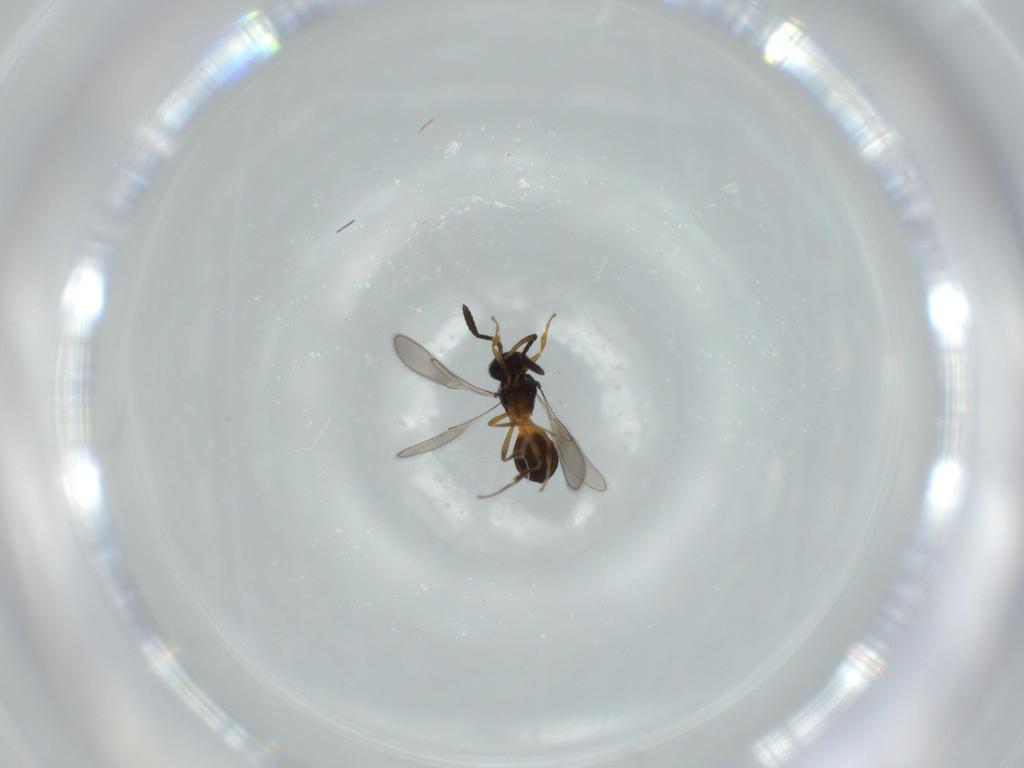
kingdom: Animalia
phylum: Arthropoda
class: Insecta
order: Hymenoptera
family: Scelionidae
